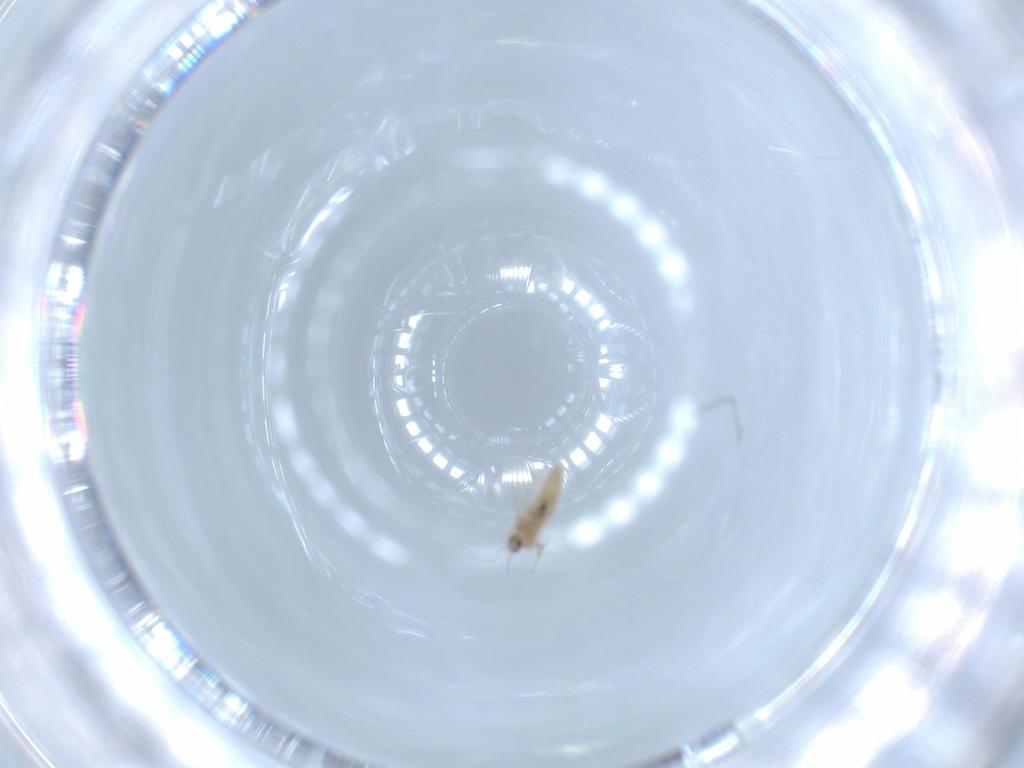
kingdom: Animalia
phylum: Arthropoda
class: Insecta
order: Diptera
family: Cecidomyiidae
